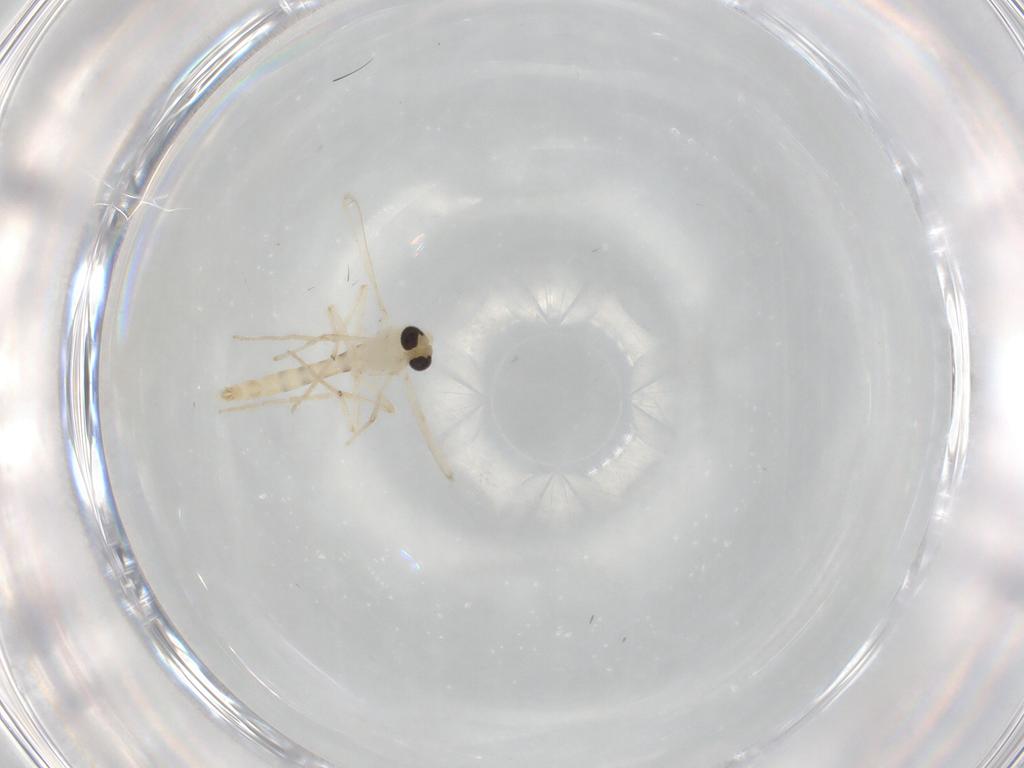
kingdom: Animalia
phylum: Arthropoda
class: Insecta
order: Diptera
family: Chironomidae
